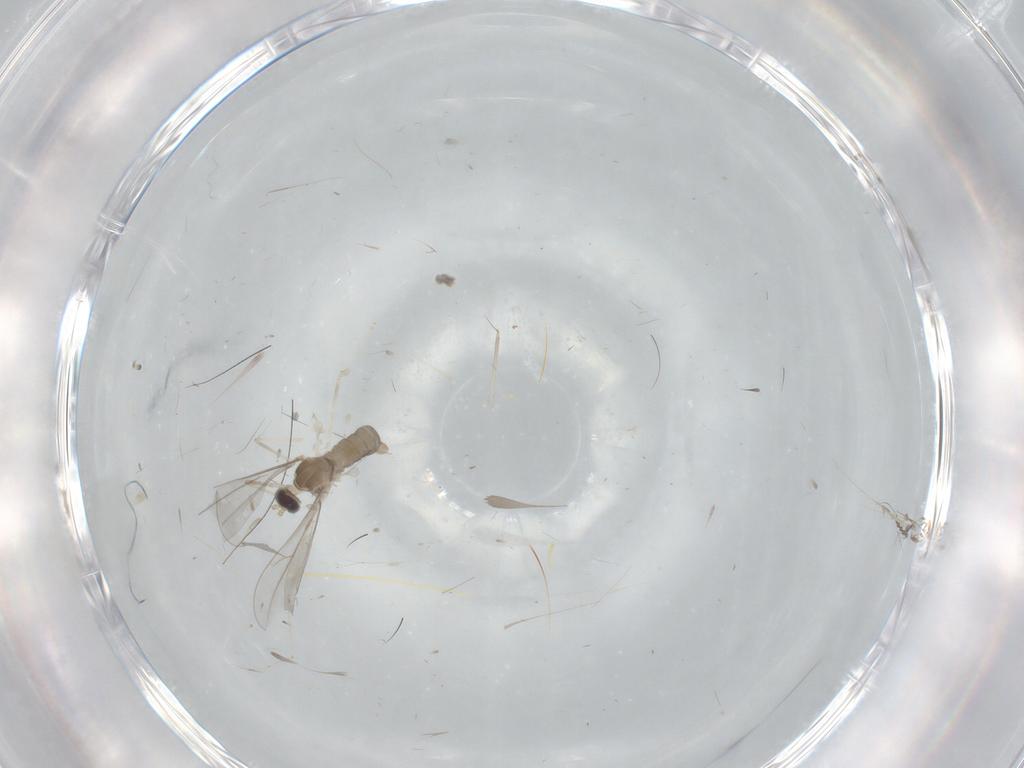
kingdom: Animalia
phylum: Arthropoda
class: Insecta
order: Diptera
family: Cecidomyiidae
